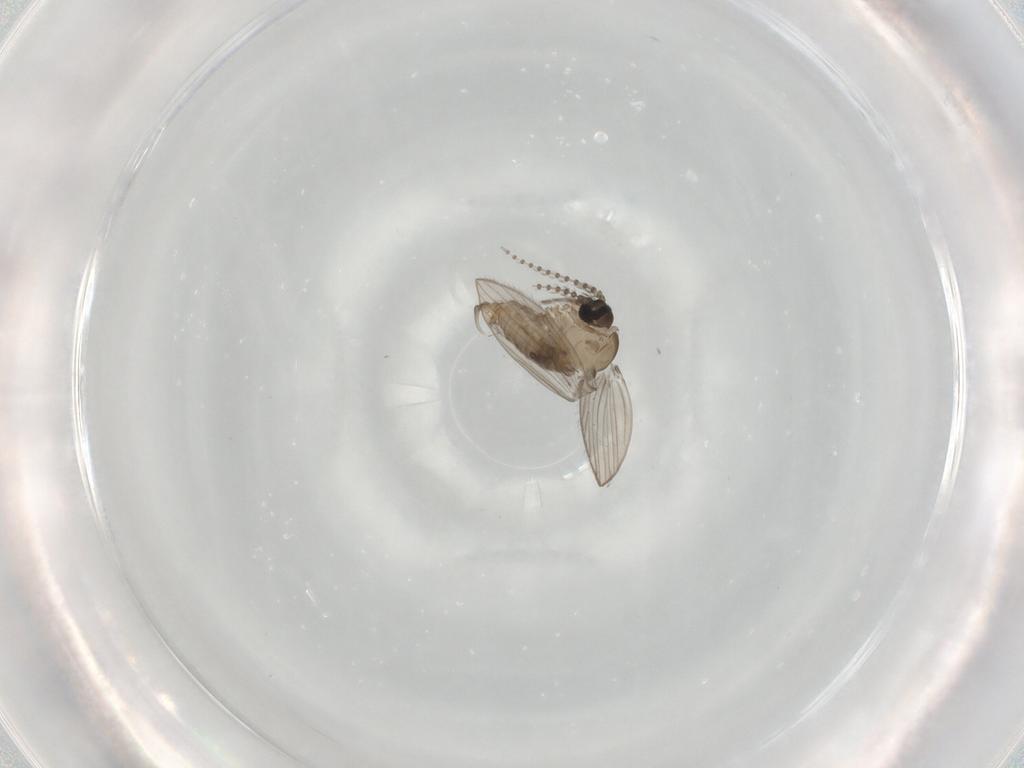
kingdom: Animalia
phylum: Arthropoda
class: Insecta
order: Diptera
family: Psychodidae
